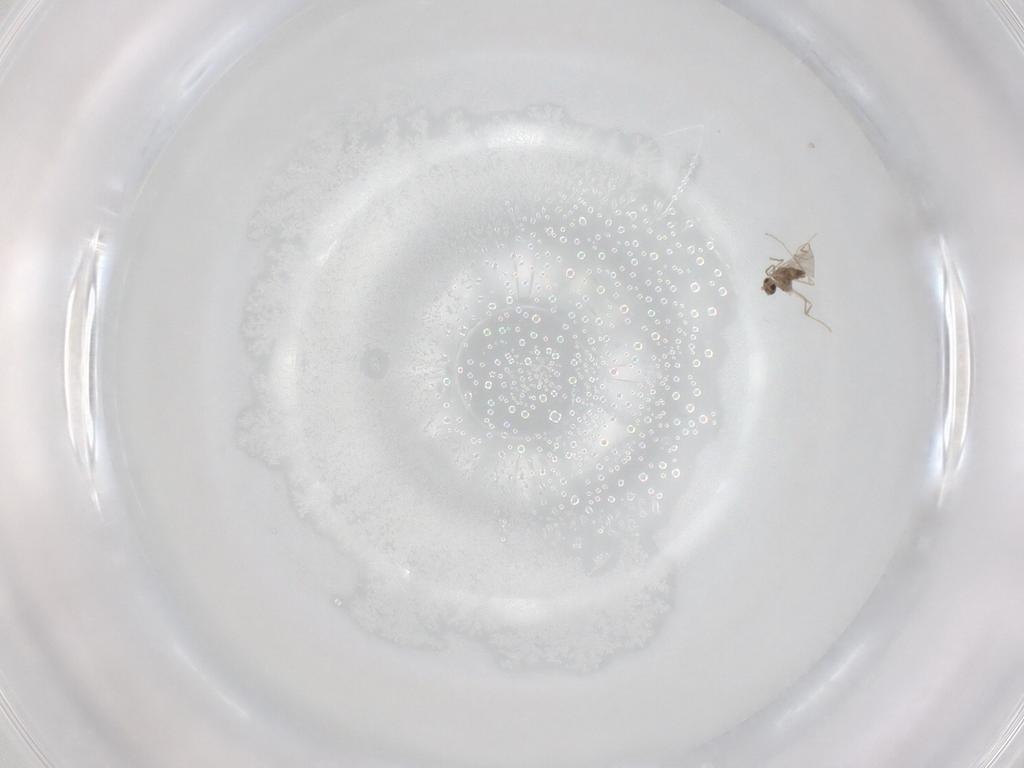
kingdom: Animalia
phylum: Arthropoda
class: Insecta
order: Diptera
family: Cecidomyiidae
